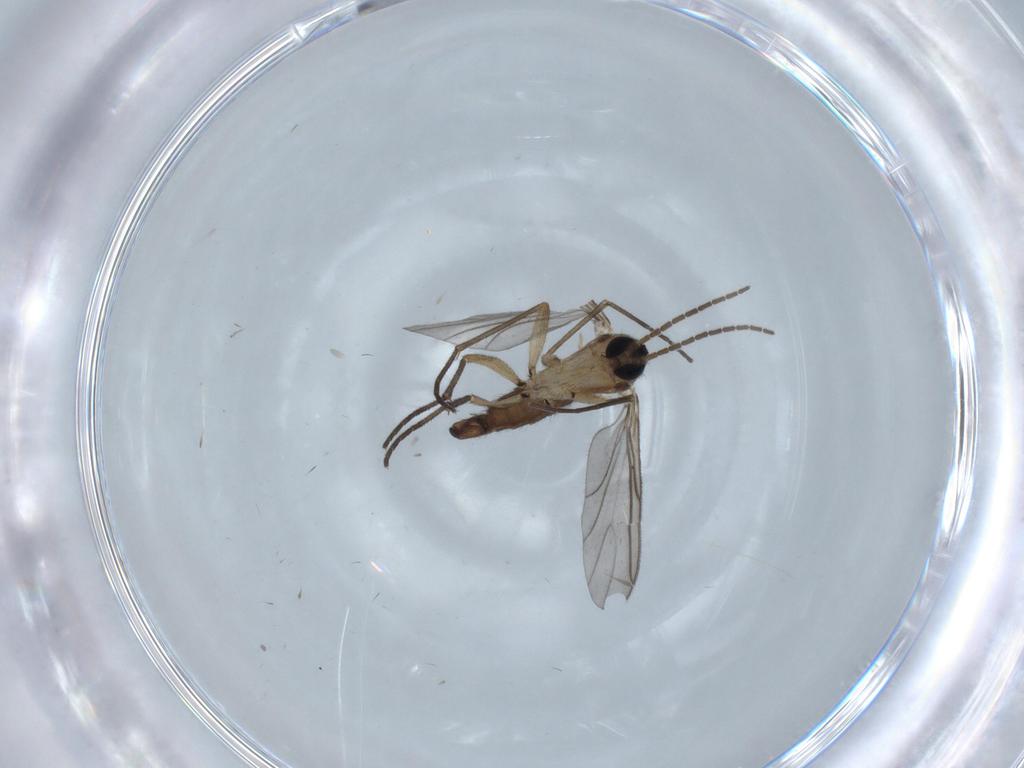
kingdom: Animalia
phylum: Arthropoda
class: Insecta
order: Diptera
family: Sciaridae
